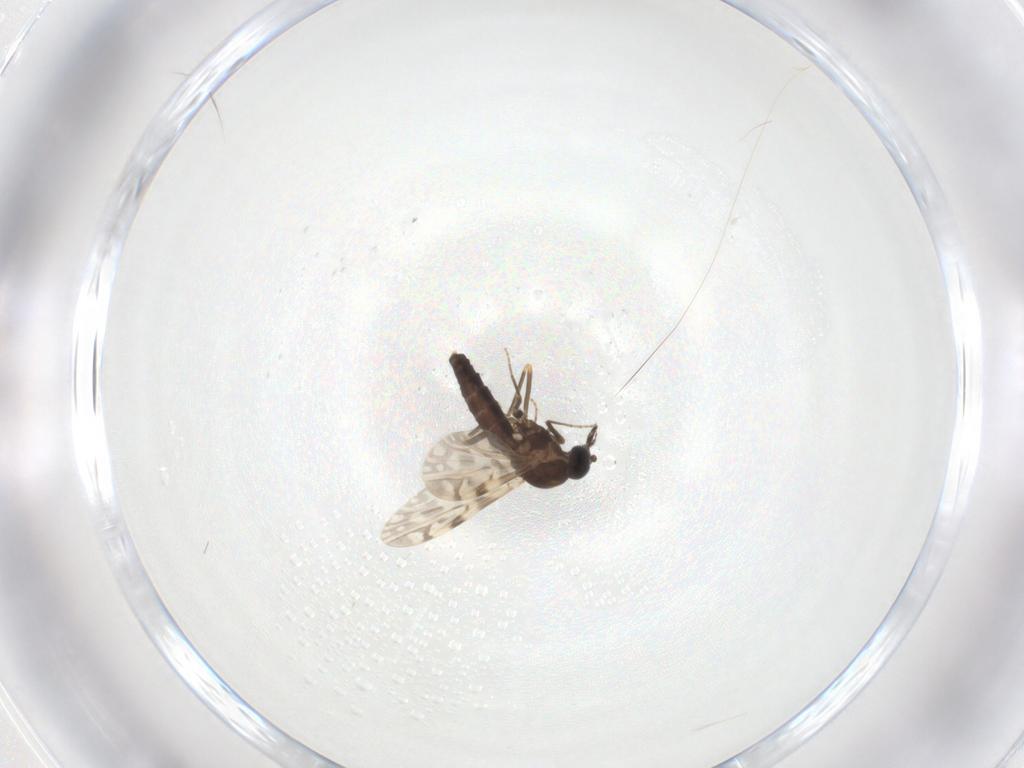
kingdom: Animalia
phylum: Arthropoda
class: Insecta
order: Diptera
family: Ceratopogonidae
